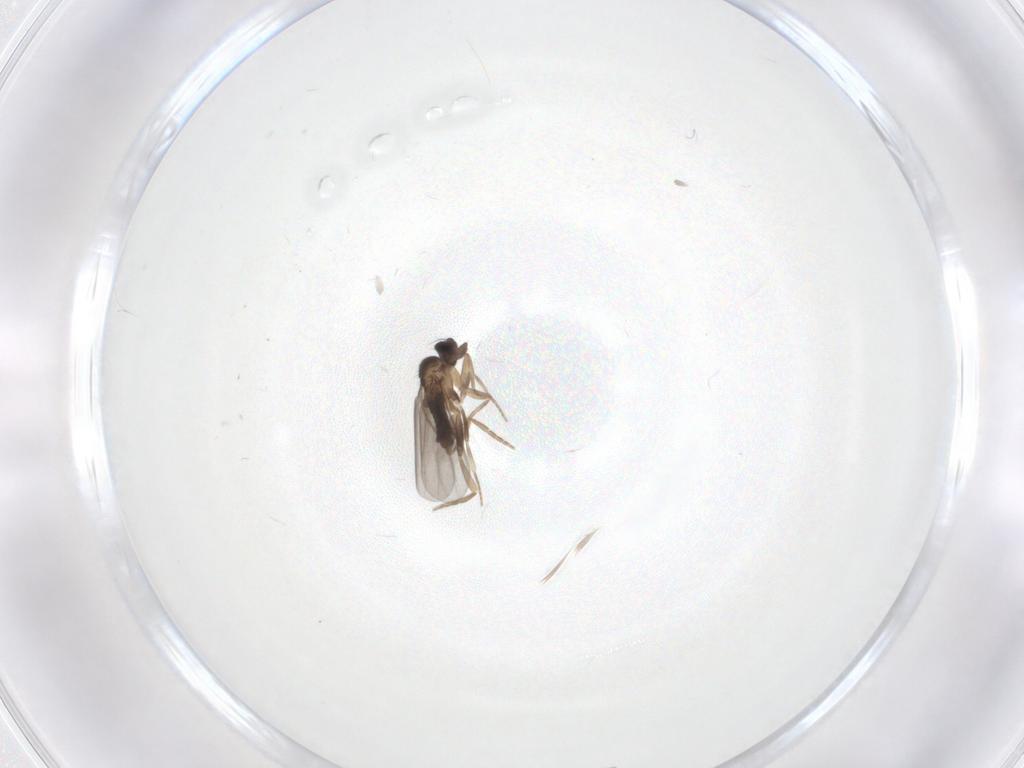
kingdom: Animalia
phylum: Arthropoda
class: Insecta
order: Diptera
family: Dolichopodidae
